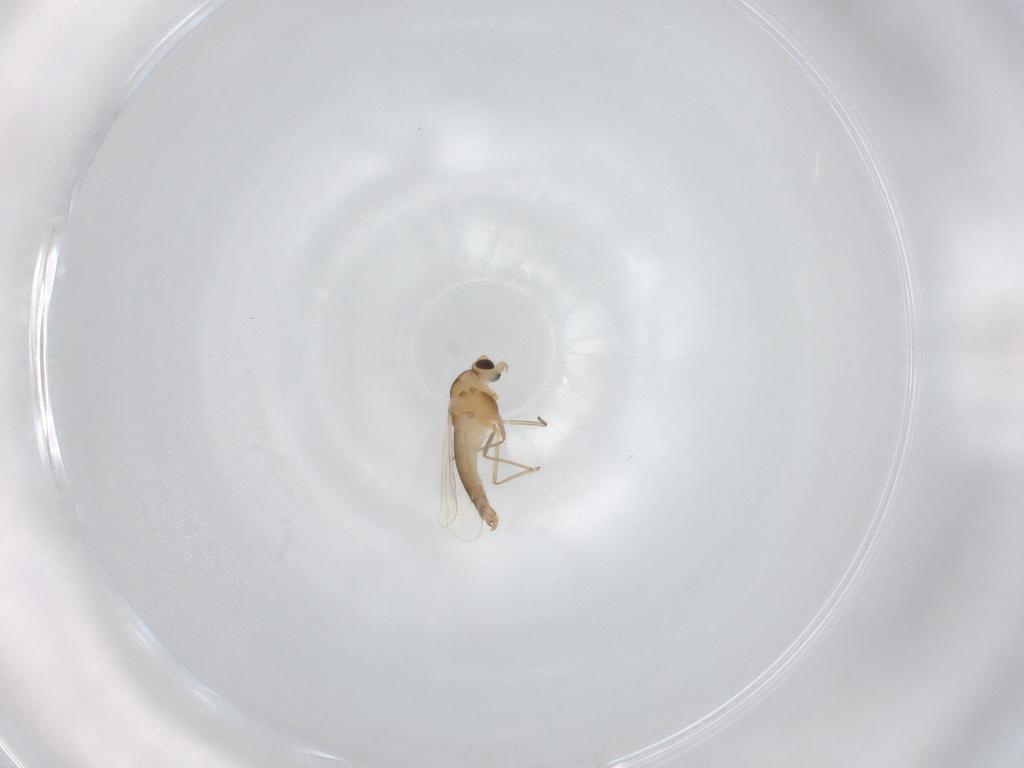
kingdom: Animalia
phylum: Arthropoda
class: Insecta
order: Diptera
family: Chironomidae
